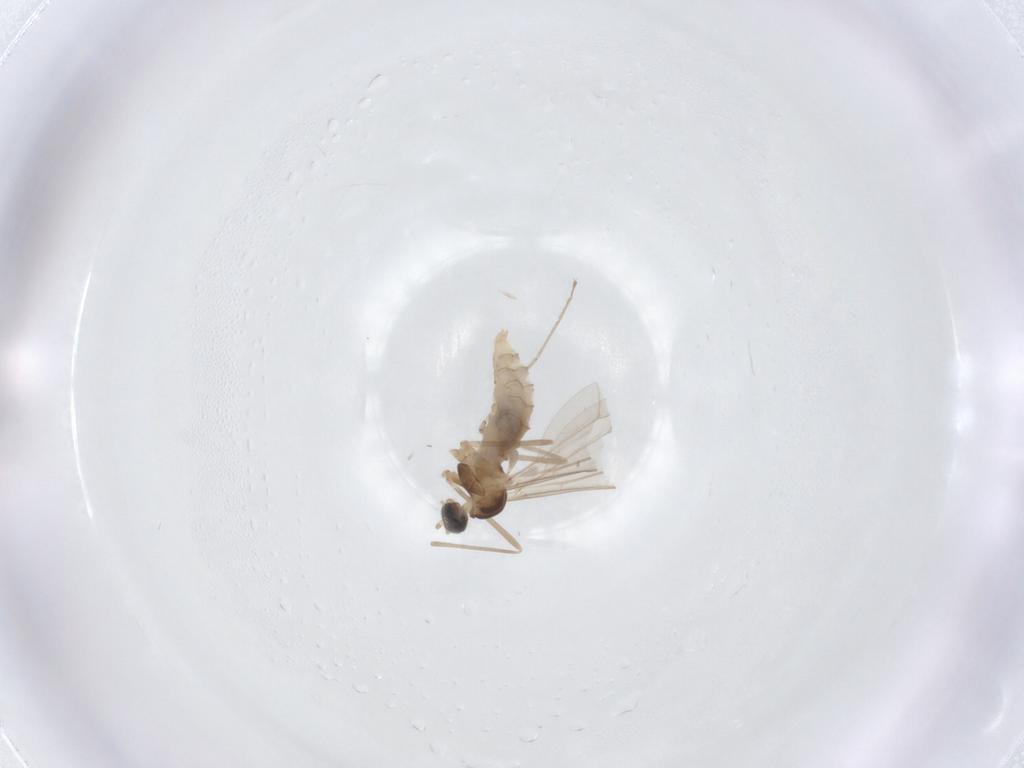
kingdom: Animalia
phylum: Arthropoda
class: Insecta
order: Diptera
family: Cecidomyiidae
